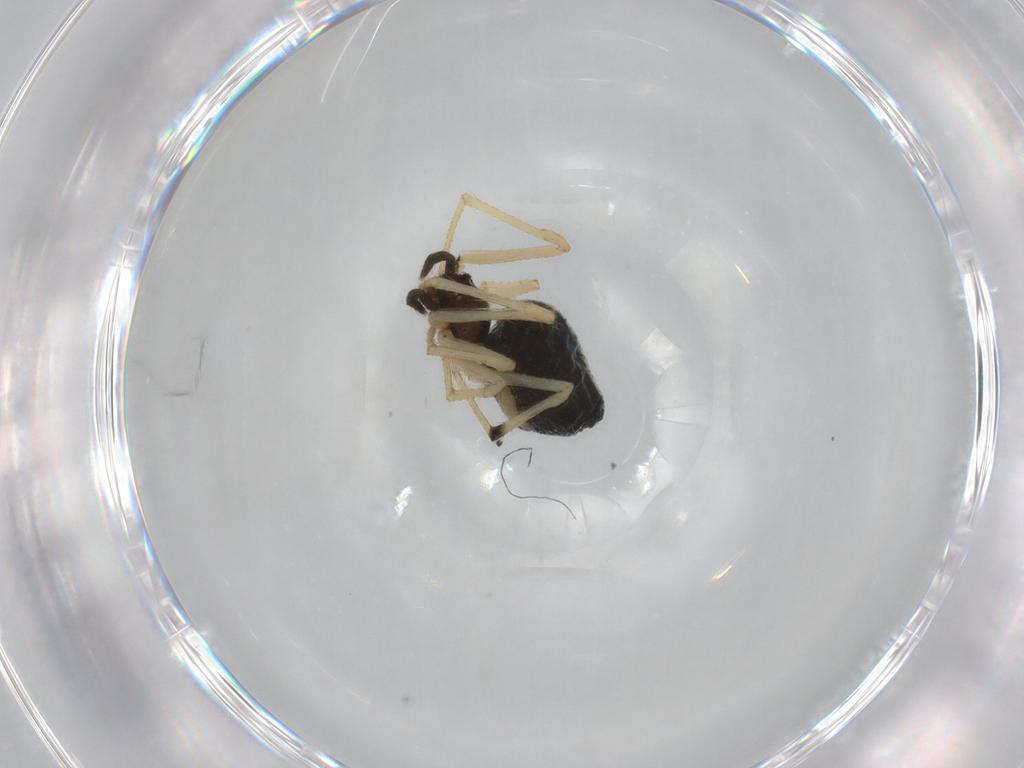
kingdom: Animalia
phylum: Arthropoda
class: Arachnida
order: Araneae
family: Theridiidae
